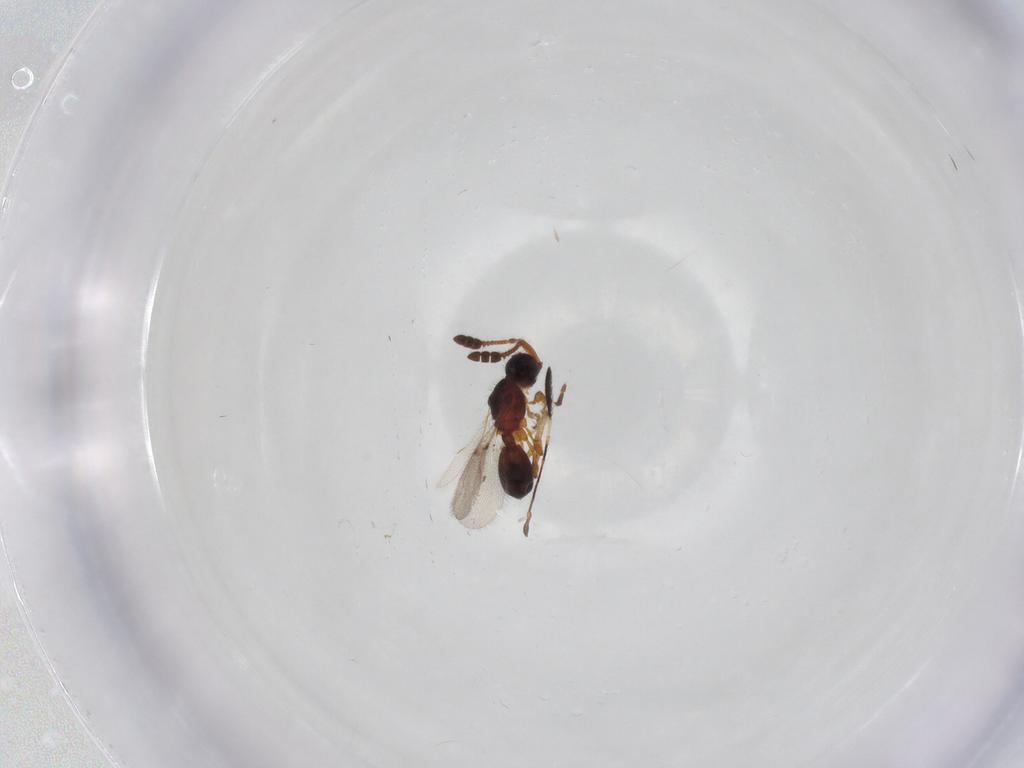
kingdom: Animalia
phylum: Arthropoda
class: Insecta
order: Hymenoptera
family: Diapriidae
